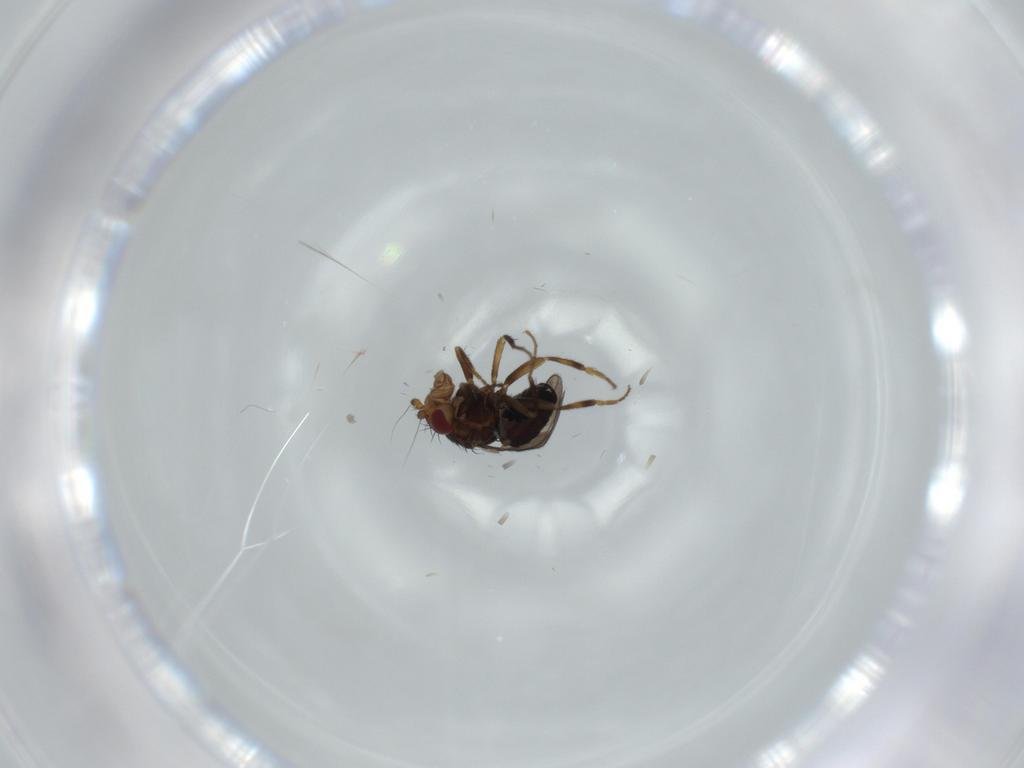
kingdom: Animalia
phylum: Arthropoda
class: Insecta
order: Diptera
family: Sphaeroceridae
